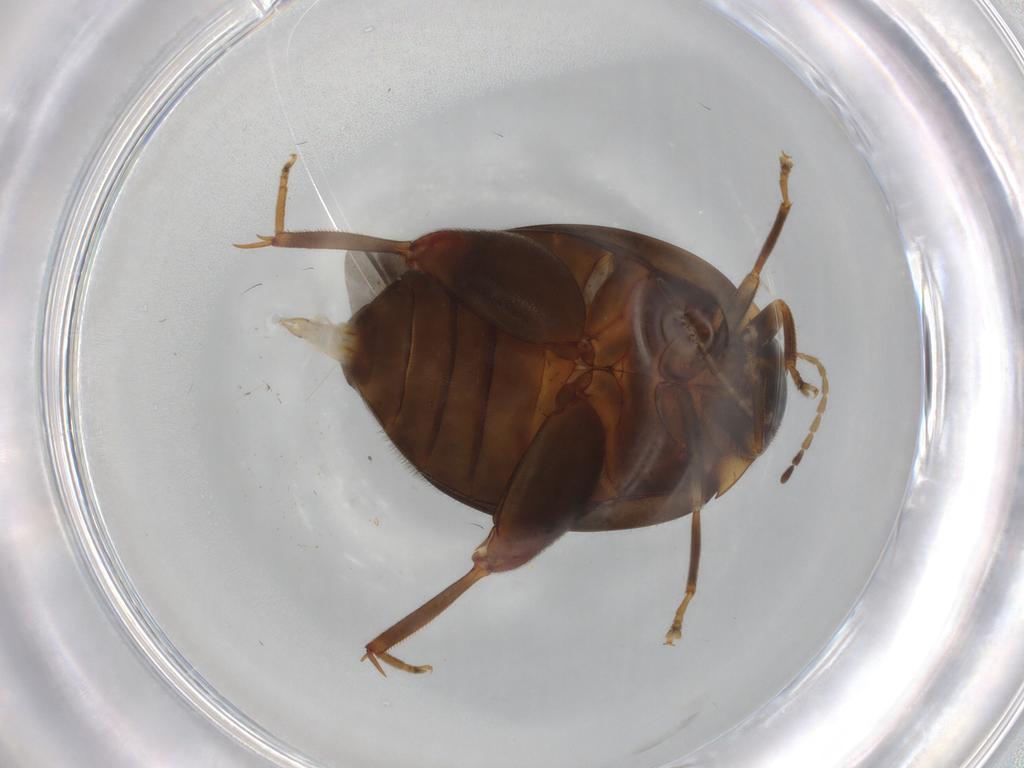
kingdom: Animalia
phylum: Arthropoda
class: Insecta
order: Coleoptera
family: Scirtidae
